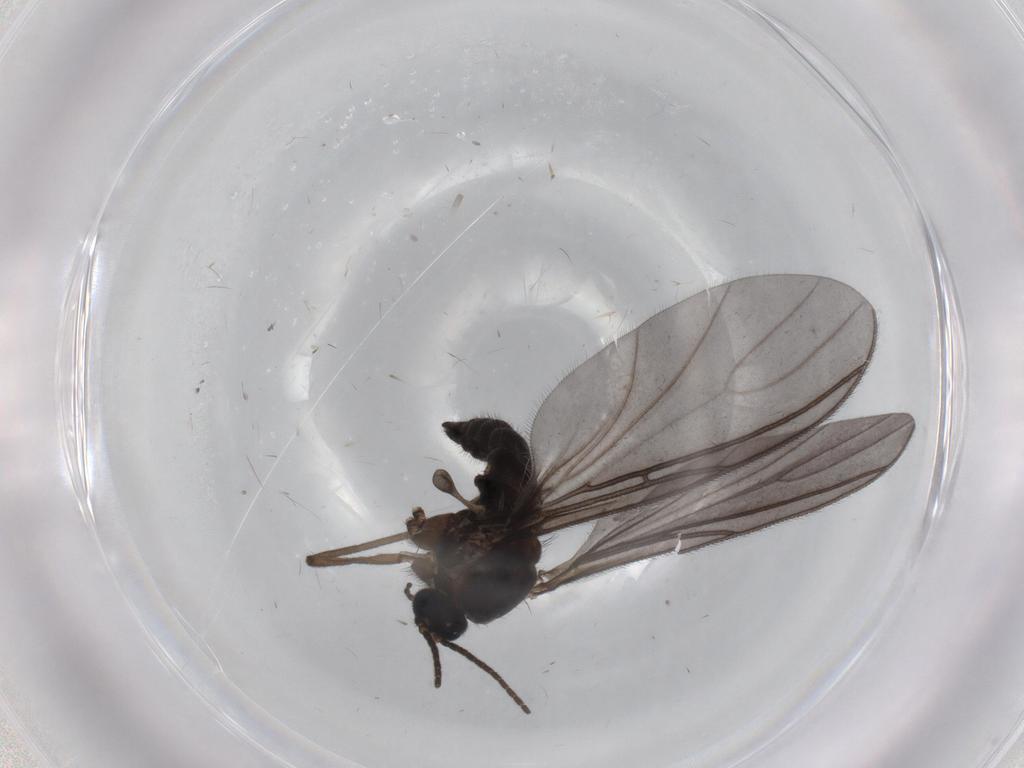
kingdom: Animalia
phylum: Arthropoda
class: Insecta
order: Diptera
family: Sciaridae
